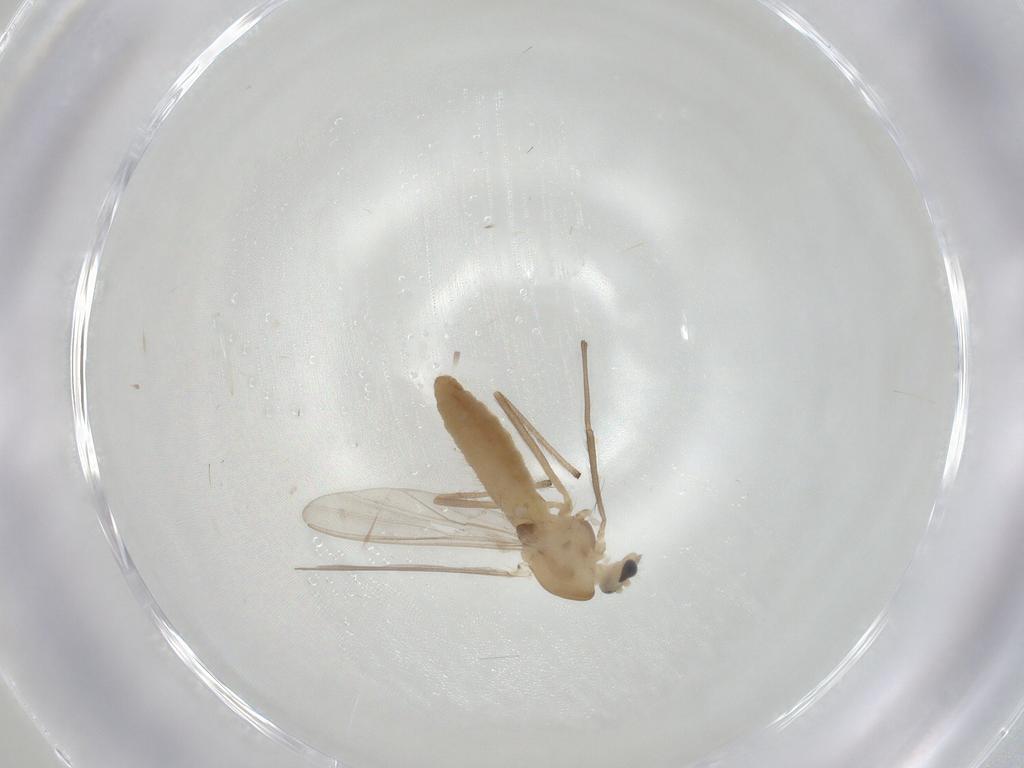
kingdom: Animalia
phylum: Arthropoda
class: Insecta
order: Diptera
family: Chironomidae
